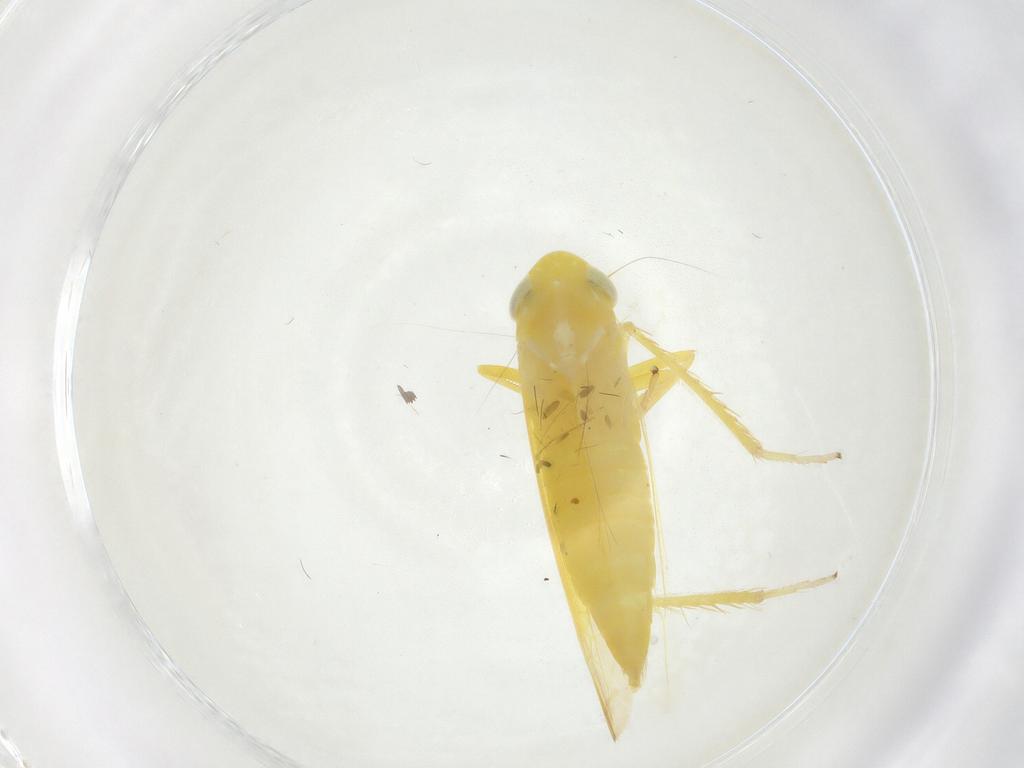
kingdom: Animalia
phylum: Arthropoda
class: Insecta
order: Hemiptera
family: Cicadellidae
